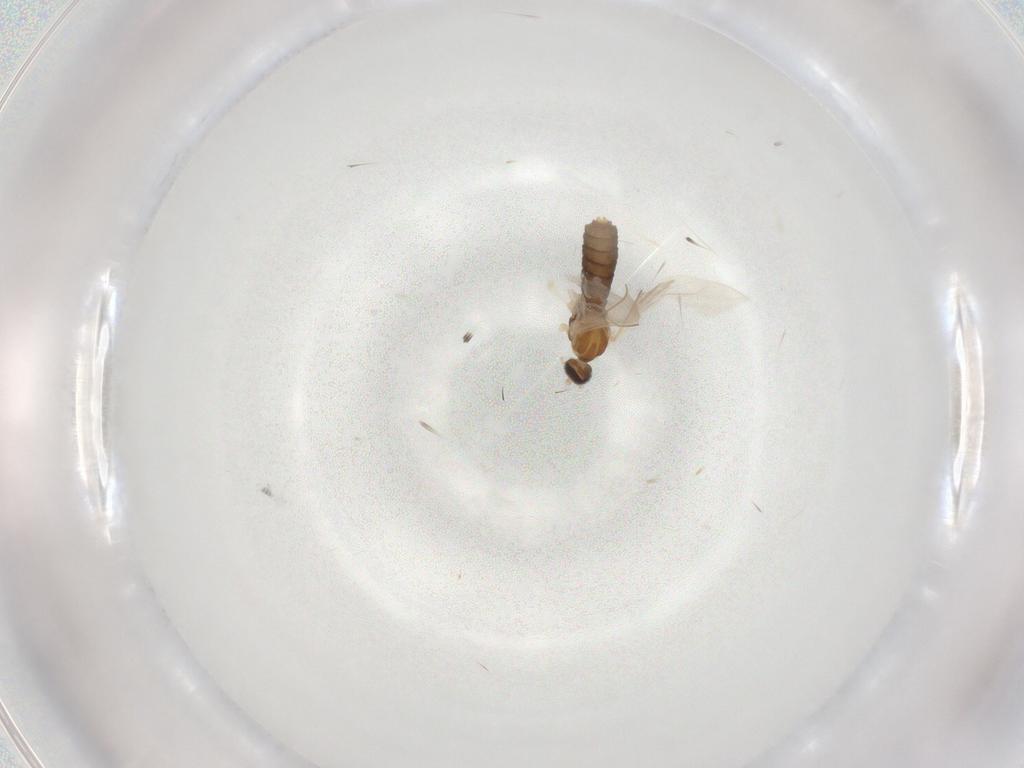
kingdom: Animalia
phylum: Arthropoda
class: Insecta
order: Diptera
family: Cecidomyiidae
